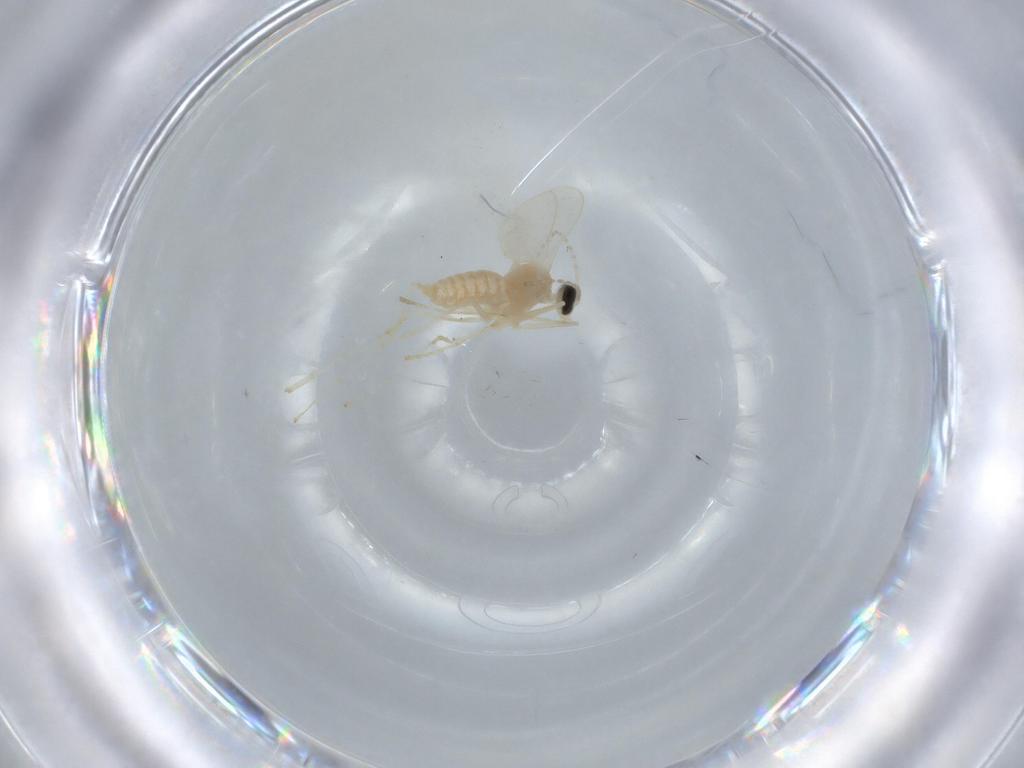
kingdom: Animalia
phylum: Arthropoda
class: Insecta
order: Diptera
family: Cecidomyiidae
